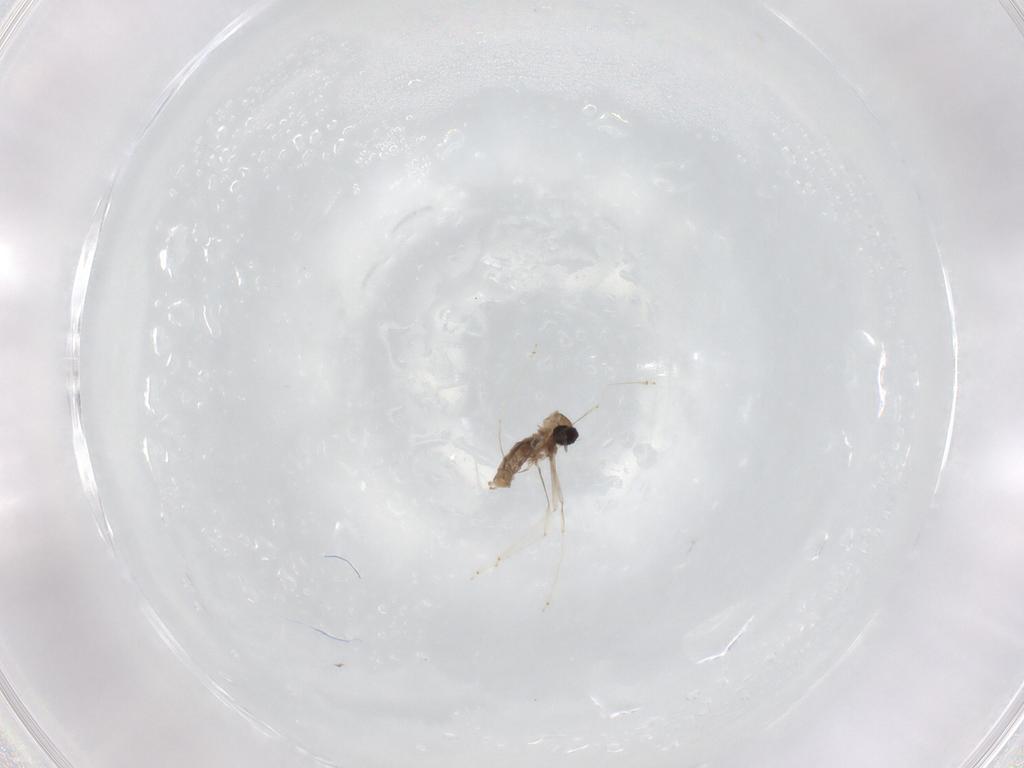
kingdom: Animalia
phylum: Arthropoda
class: Insecta
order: Diptera
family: Cecidomyiidae
